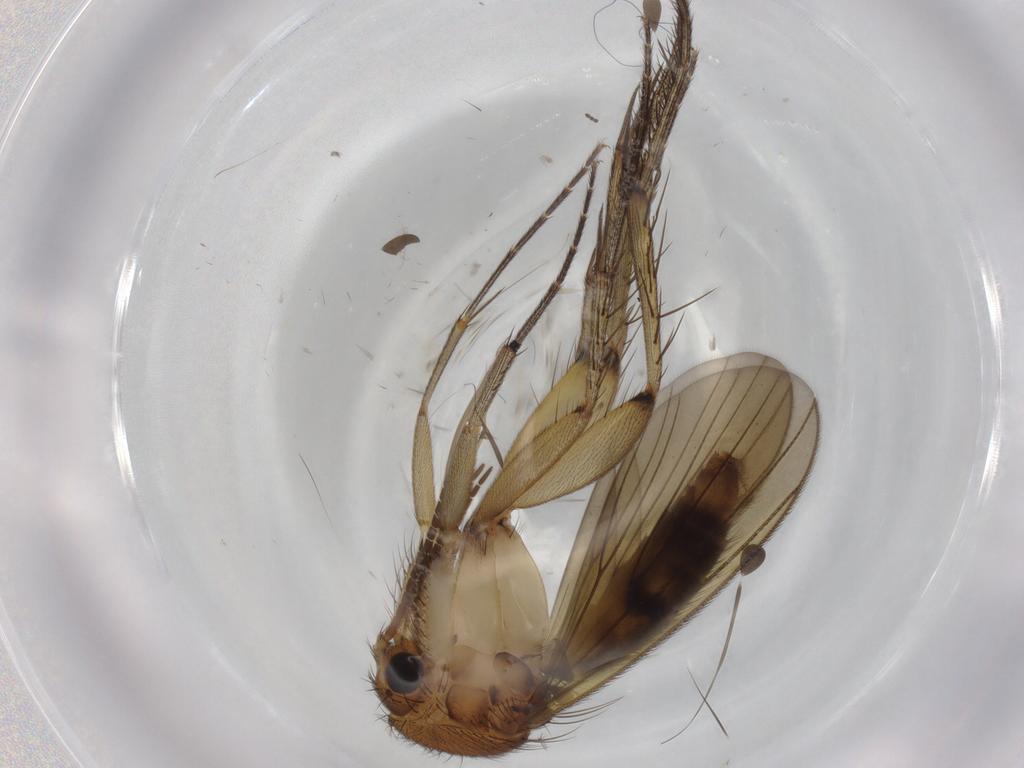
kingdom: Animalia
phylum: Arthropoda
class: Insecta
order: Diptera
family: Mycetophilidae
